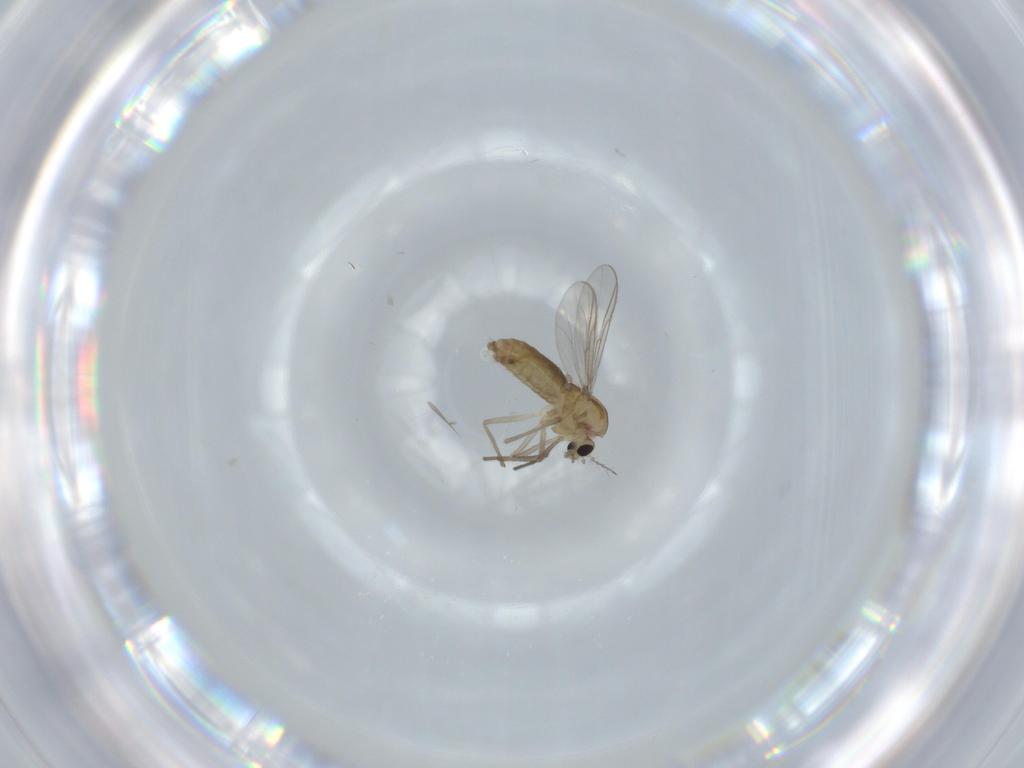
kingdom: Animalia
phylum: Arthropoda
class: Insecta
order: Diptera
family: Chironomidae
